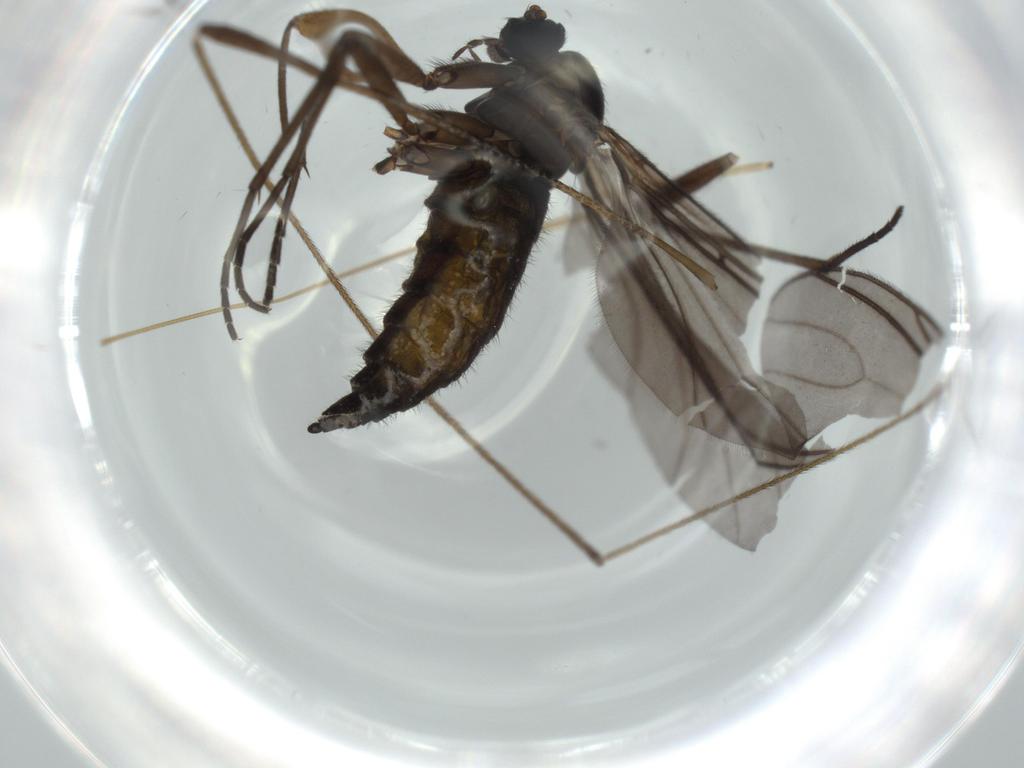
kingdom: Animalia
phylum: Arthropoda
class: Insecta
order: Diptera
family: Sciaridae
